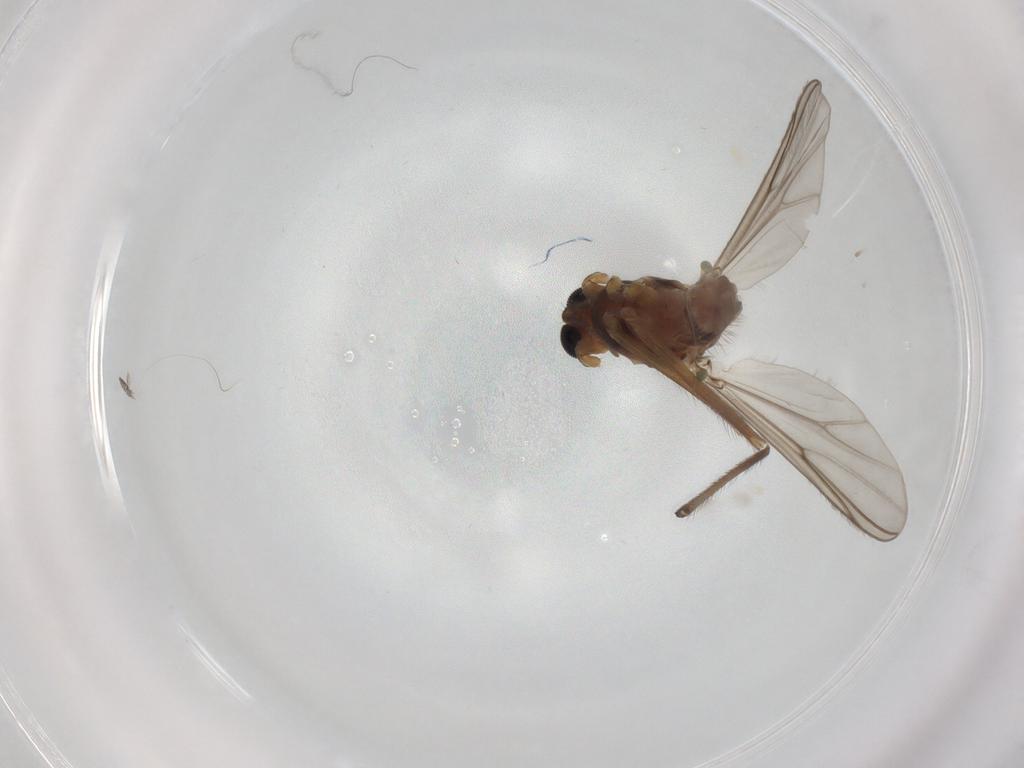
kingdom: Animalia
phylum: Arthropoda
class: Insecta
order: Diptera
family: Chironomidae
